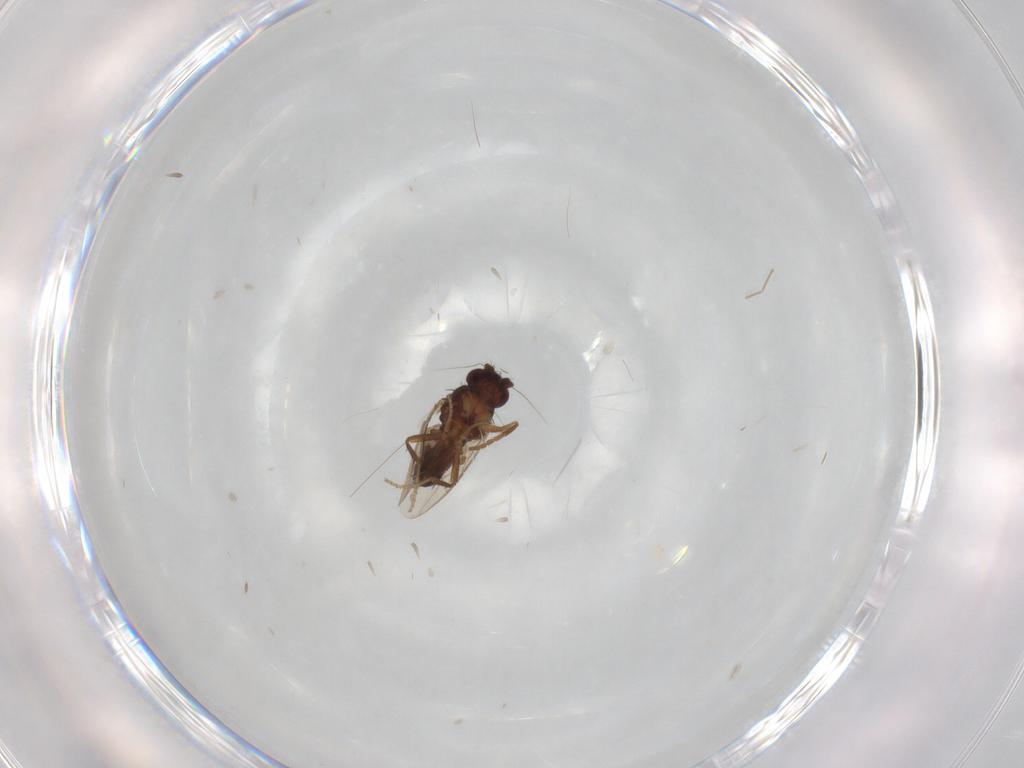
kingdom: Animalia
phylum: Arthropoda
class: Insecta
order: Diptera
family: Sphaeroceridae
